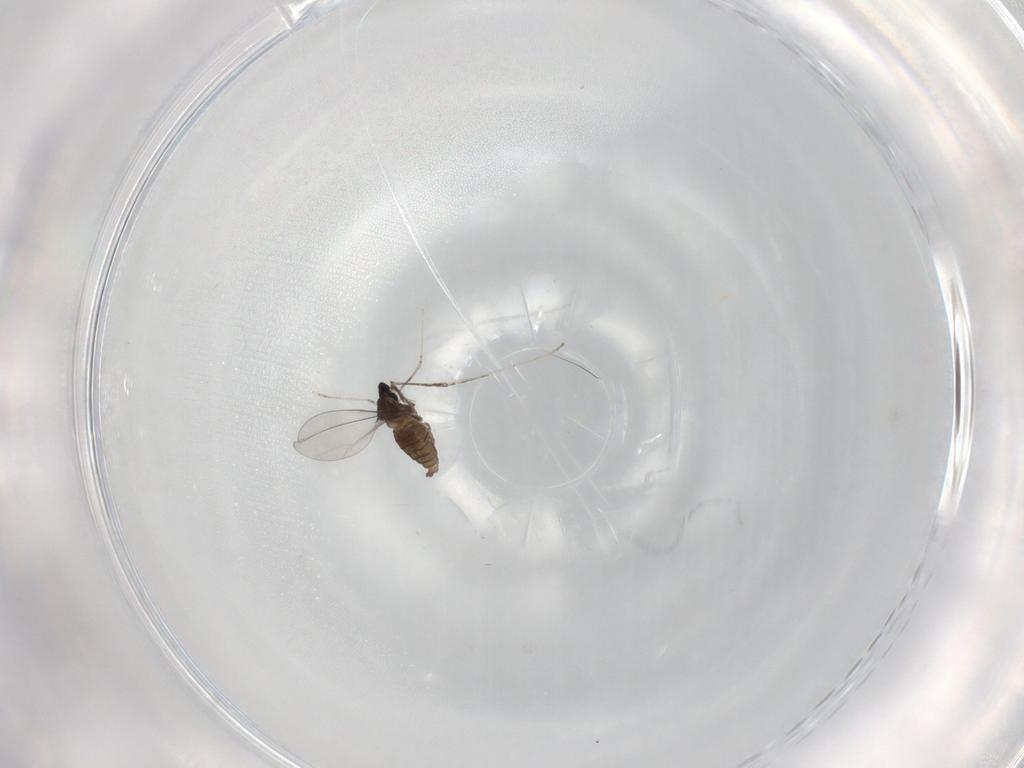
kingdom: Animalia
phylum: Arthropoda
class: Insecta
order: Diptera
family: Cecidomyiidae
